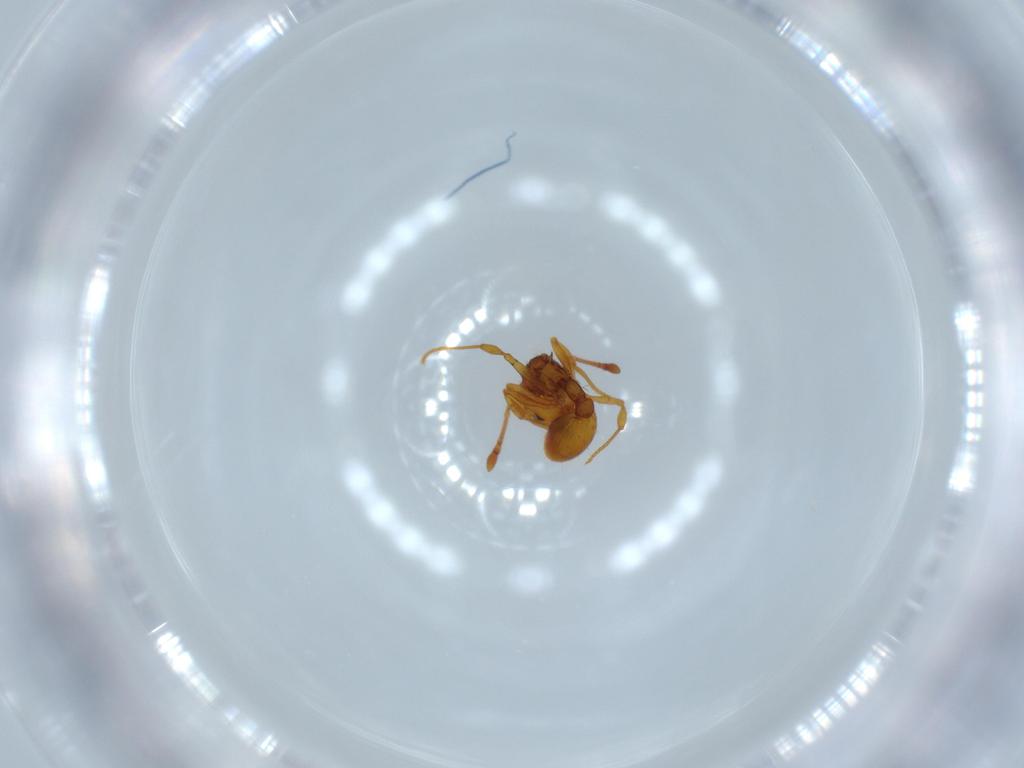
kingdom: Animalia
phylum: Arthropoda
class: Insecta
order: Hymenoptera
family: Formicidae
